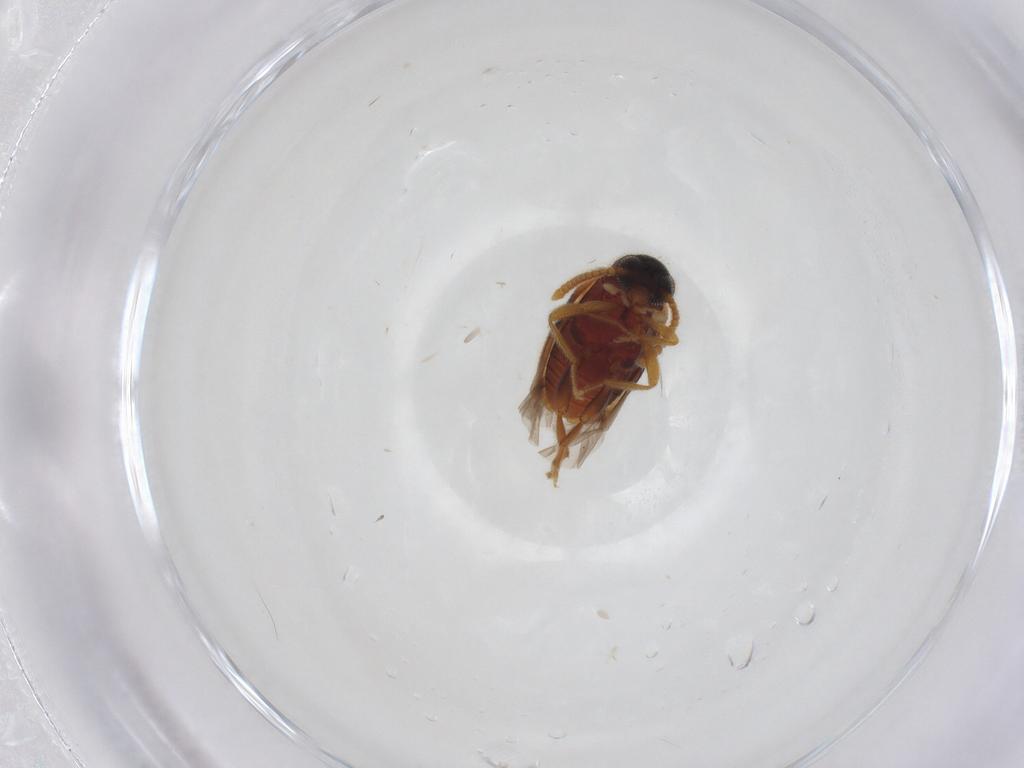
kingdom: Animalia
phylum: Arthropoda
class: Insecta
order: Coleoptera
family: Aderidae
